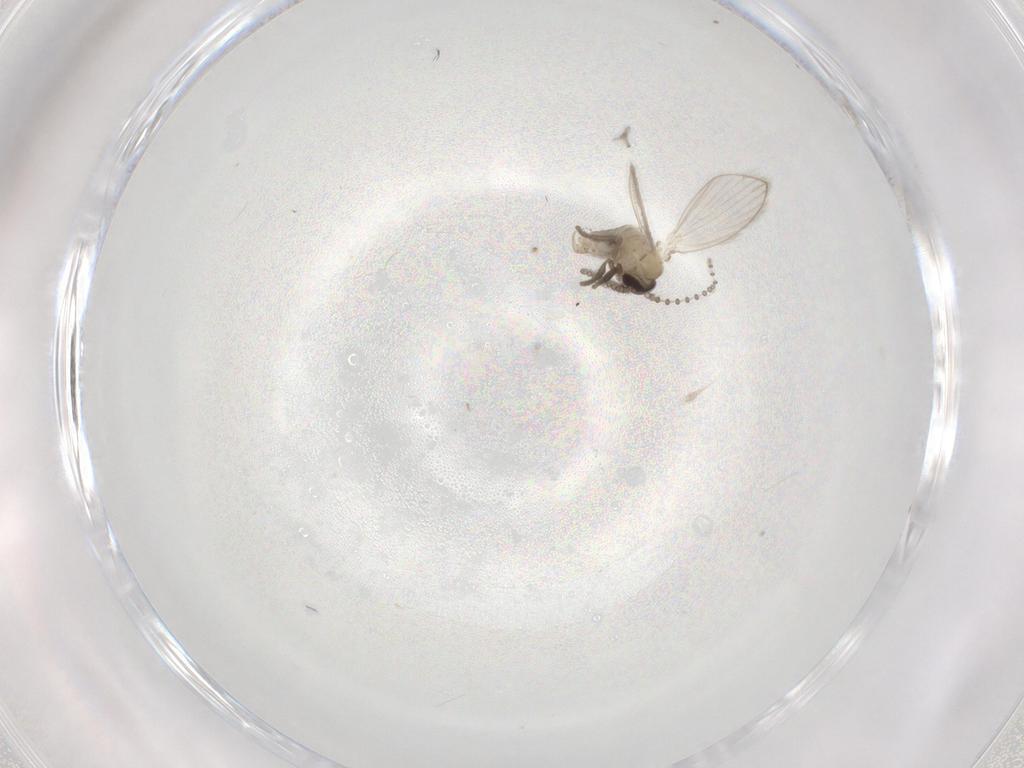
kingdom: Animalia
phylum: Arthropoda
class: Insecta
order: Diptera
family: Psychodidae
